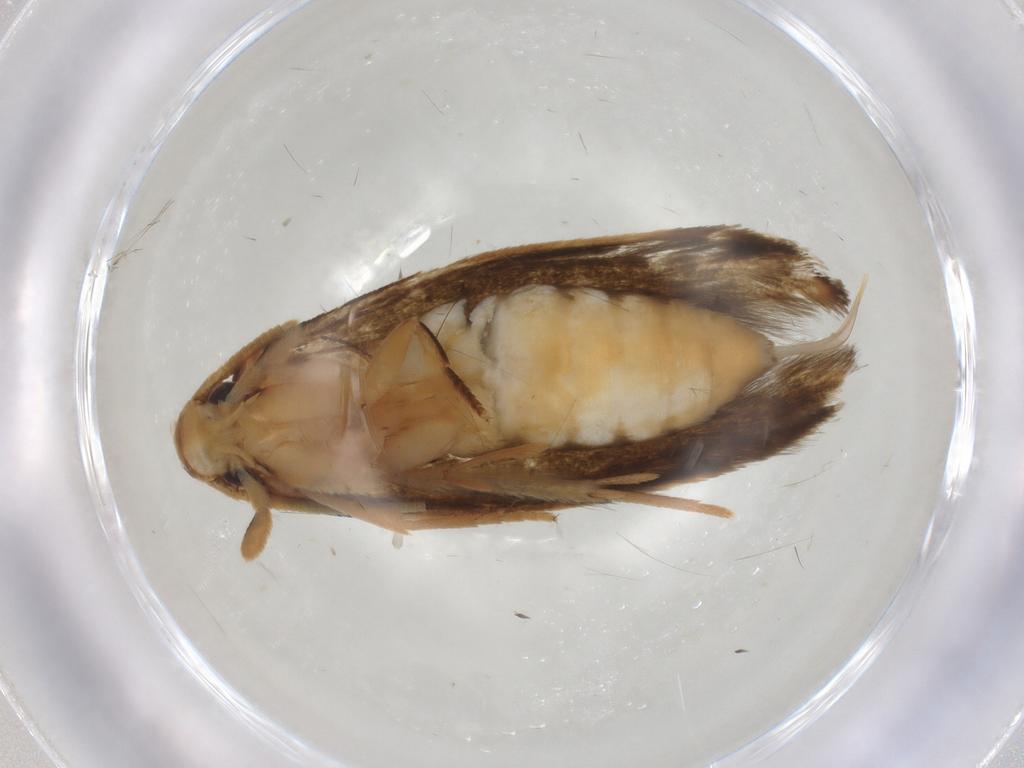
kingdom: Animalia
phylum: Arthropoda
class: Insecta
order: Lepidoptera
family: Tineidae
